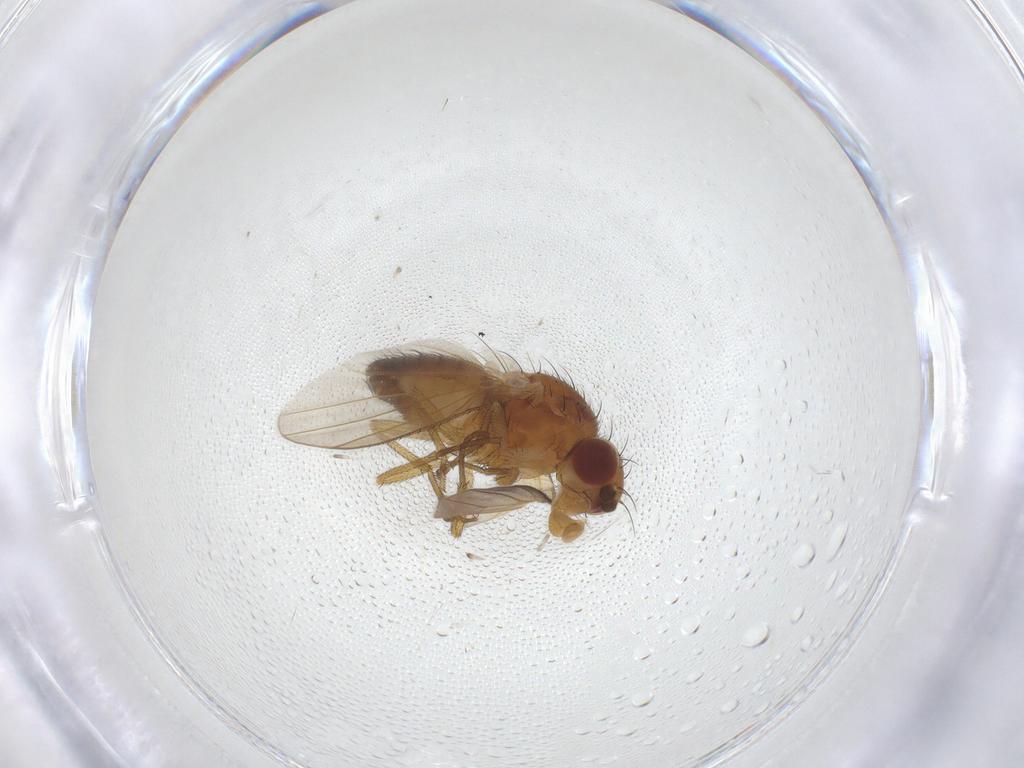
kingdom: Animalia
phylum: Arthropoda
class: Insecta
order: Diptera
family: Heleomyzidae
